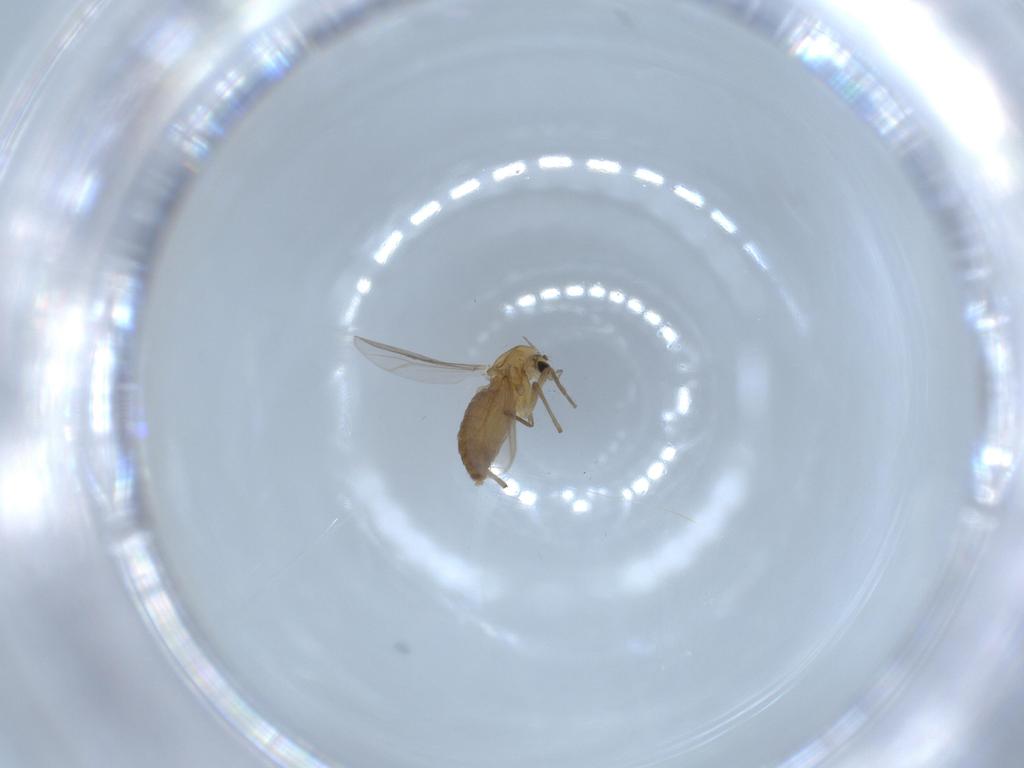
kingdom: Animalia
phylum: Arthropoda
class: Insecta
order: Diptera
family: Chironomidae
